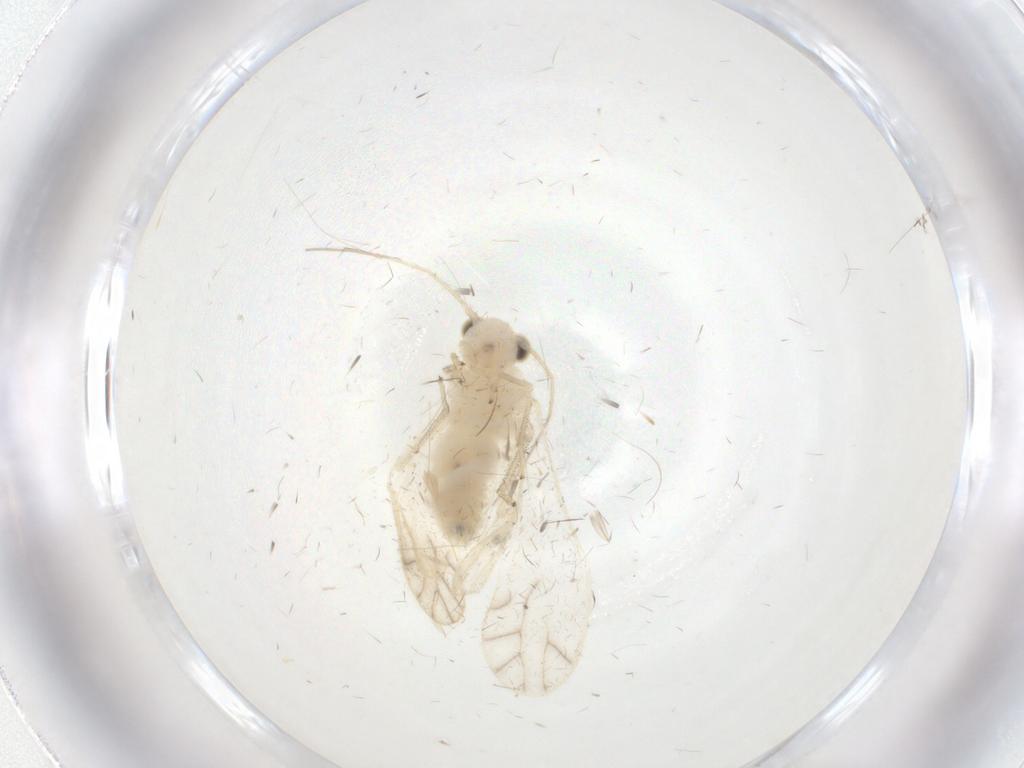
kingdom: Animalia
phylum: Arthropoda
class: Insecta
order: Psocodea
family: Caeciliusidae
